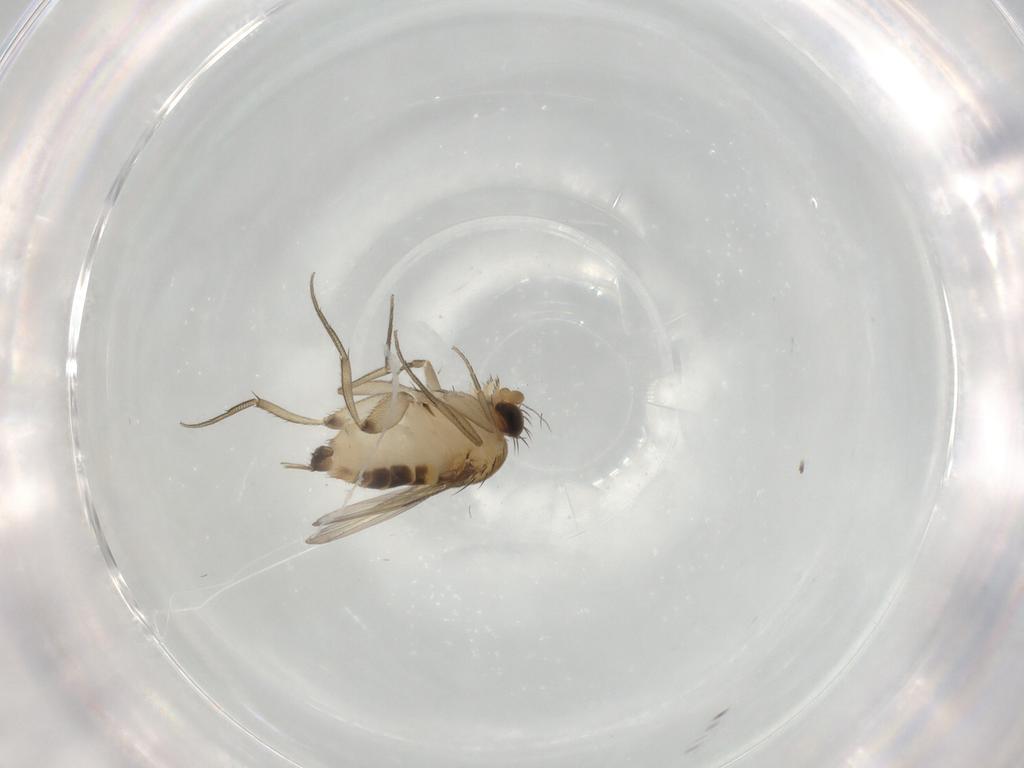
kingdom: Animalia
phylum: Arthropoda
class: Insecta
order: Diptera
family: Phoridae
